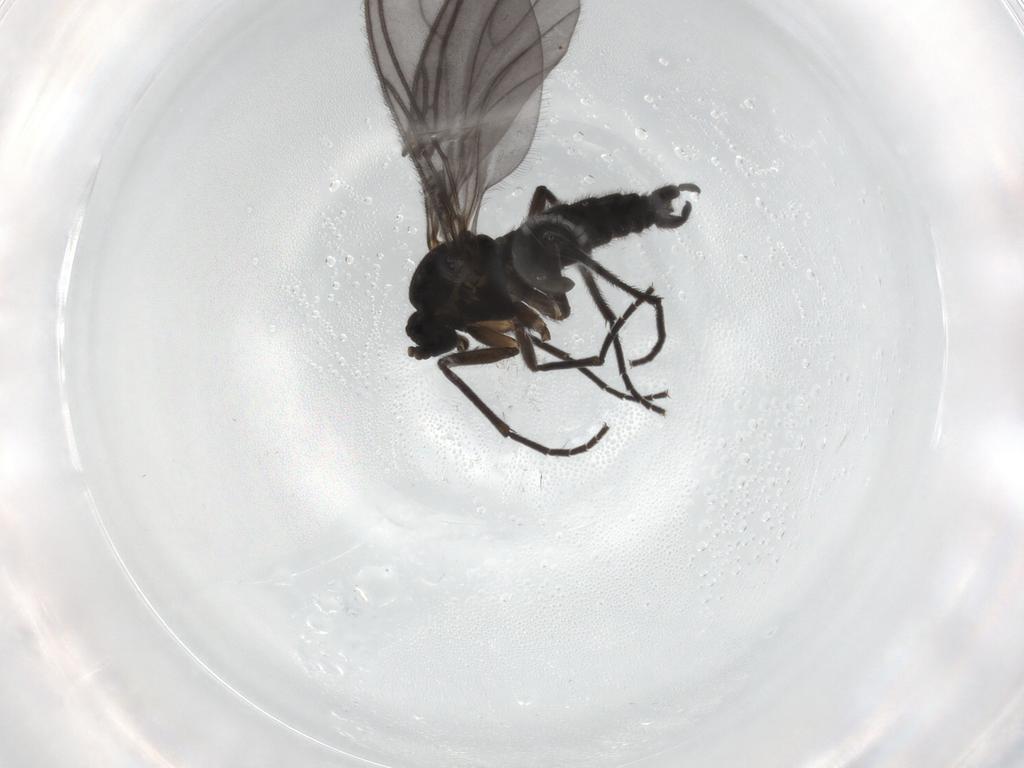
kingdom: Animalia
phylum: Arthropoda
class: Insecta
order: Diptera
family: Sciaridae
